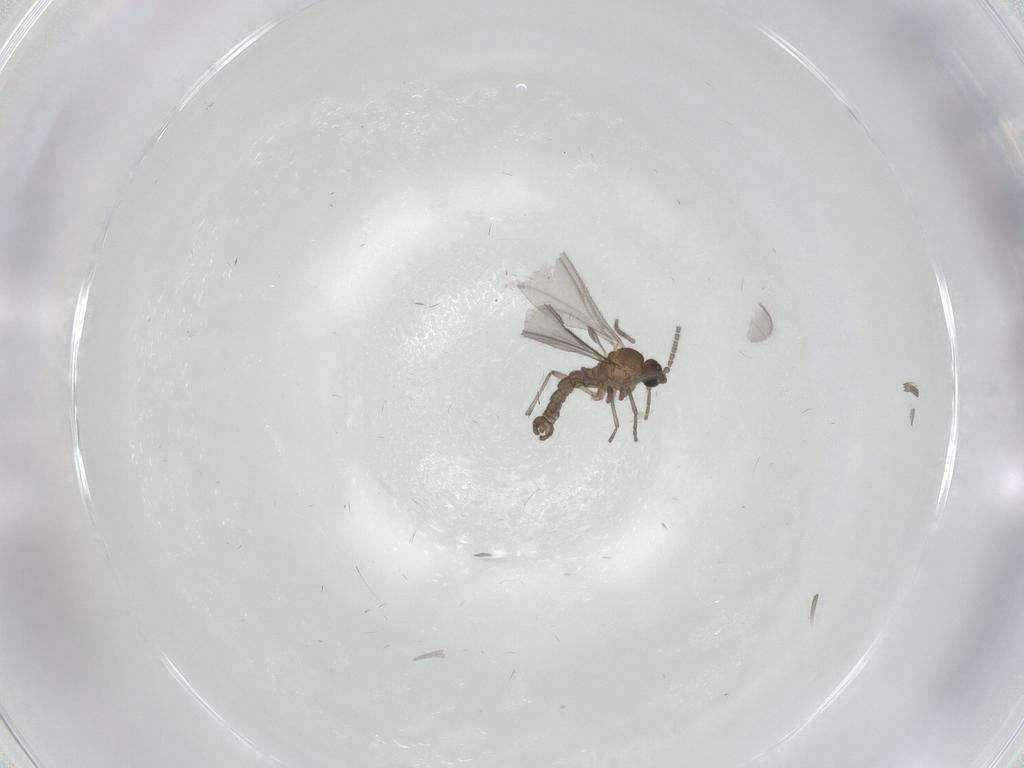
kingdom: Animalia
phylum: Arthropoda
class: Insecta
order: Diptera
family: Sciaridae
